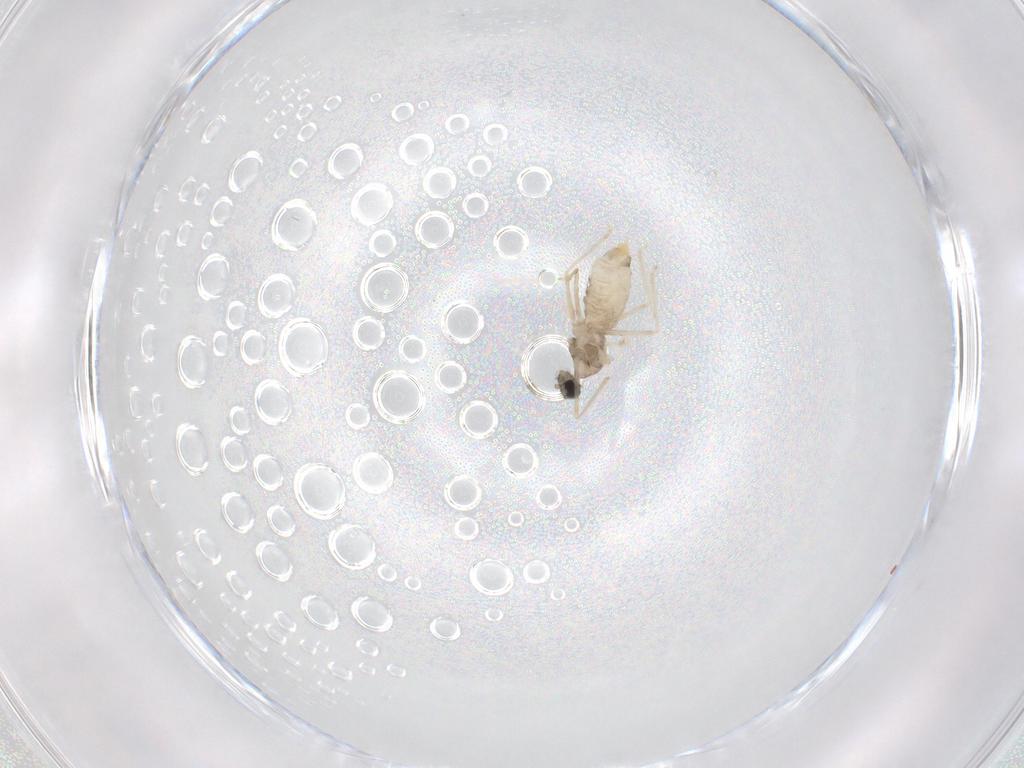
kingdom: Animalia
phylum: Arthropoda
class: Insecta
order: Diptera
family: Cecidomyiidae
